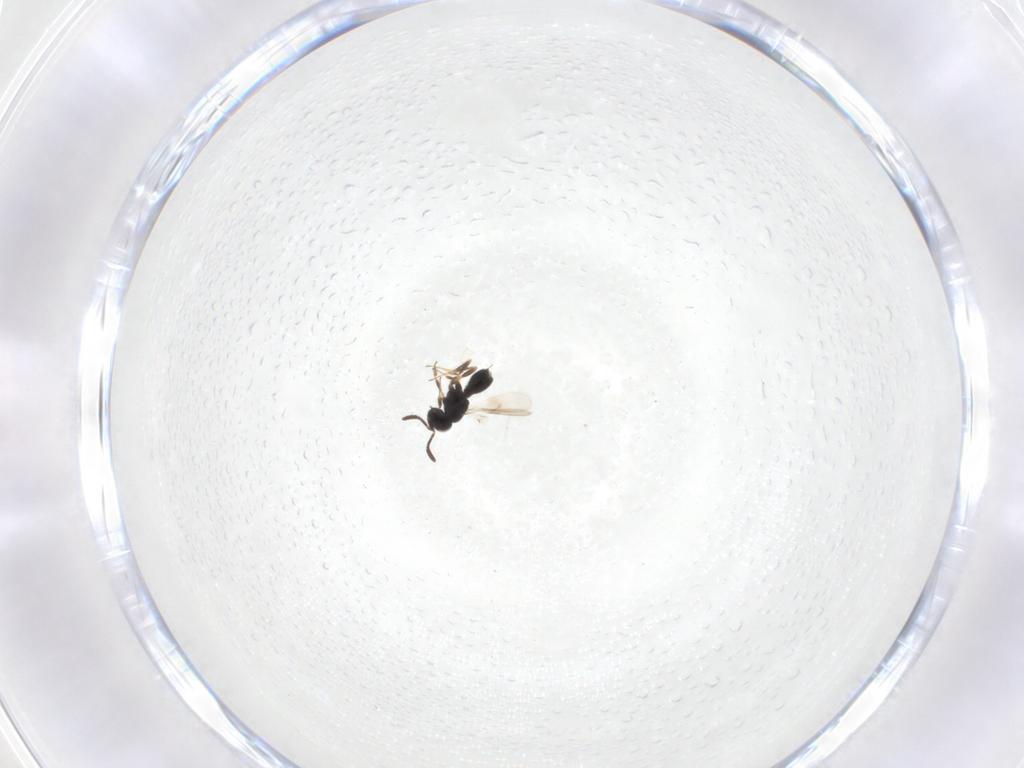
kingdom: Animalia
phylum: Arthropoda
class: Insecta
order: Hymenoptera
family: Scelionidae
